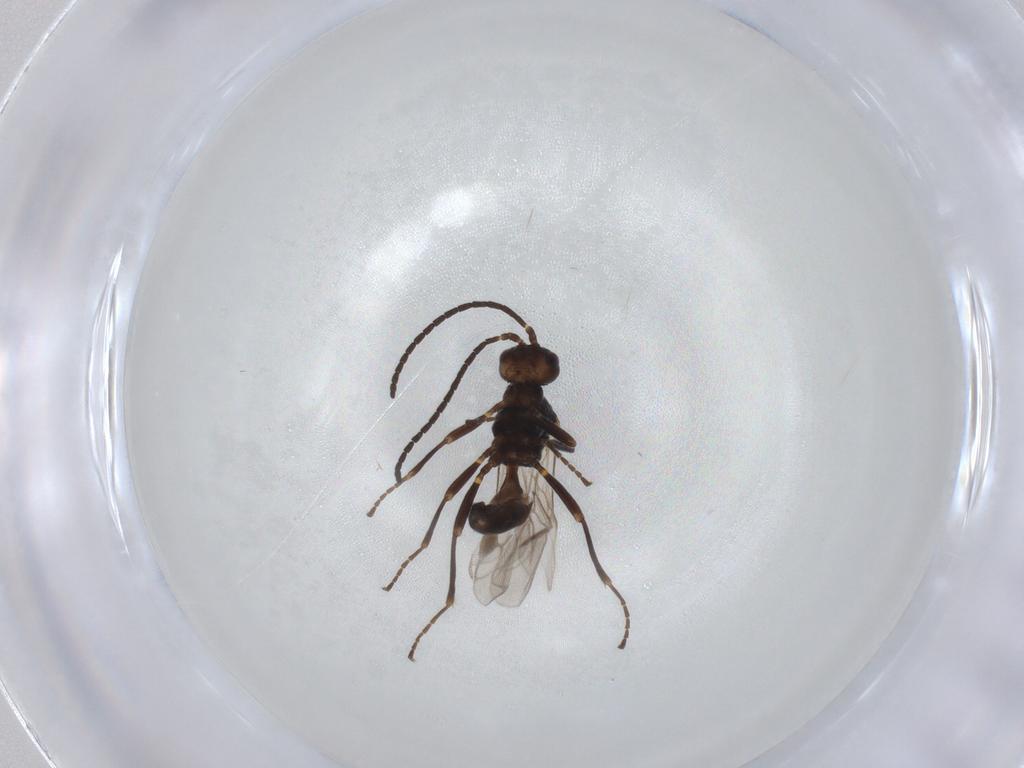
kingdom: Animalia
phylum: Arthropoda
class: Insecta
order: Hymenoptera
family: Braconidae
